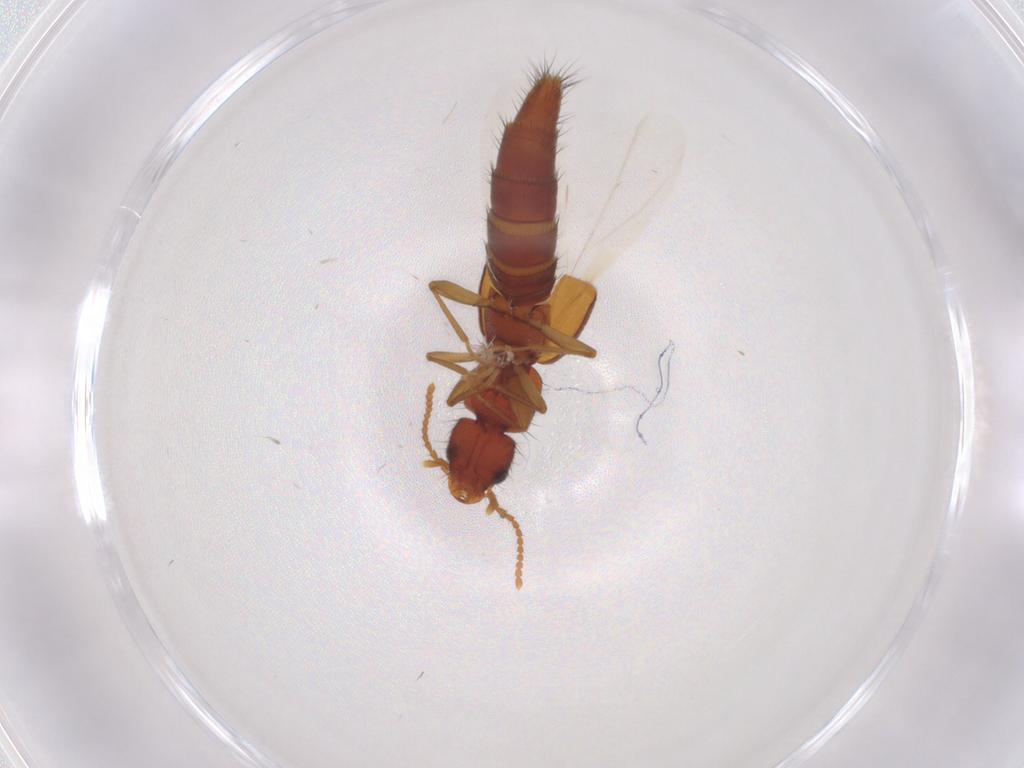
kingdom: Animalia
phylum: Arthropoda
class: Insecta
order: Coleoptera
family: Staphylinidae
